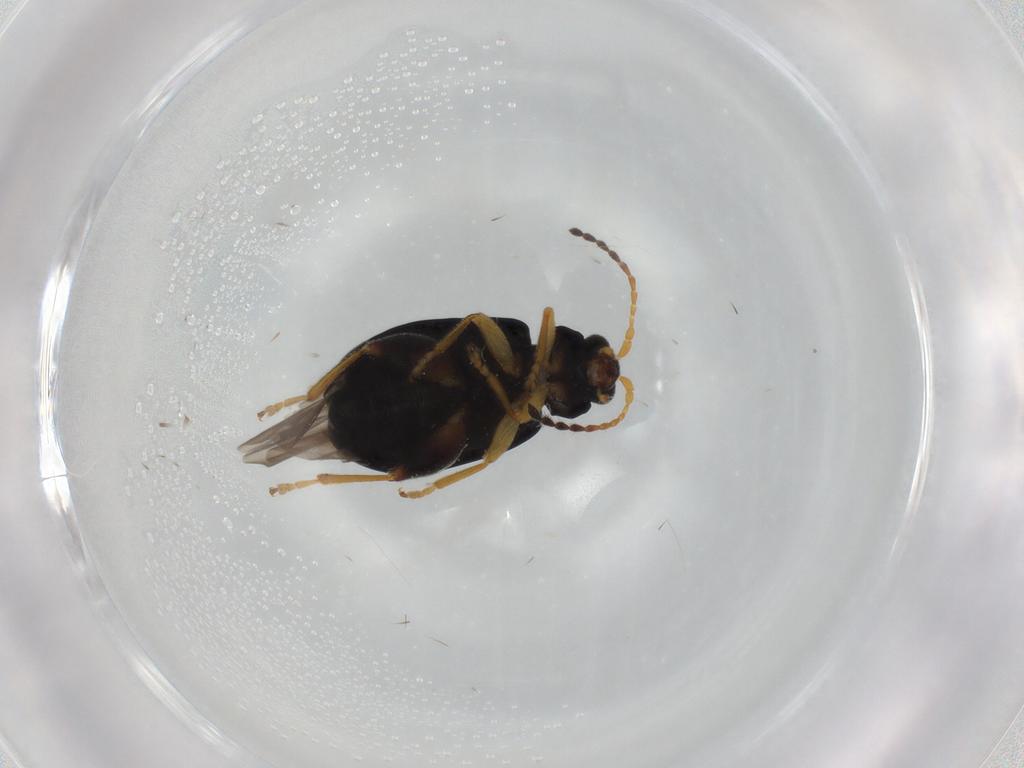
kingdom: Animalia
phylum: Arthropoda
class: Insecta
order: Coleoptera
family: Chrysomelidae
